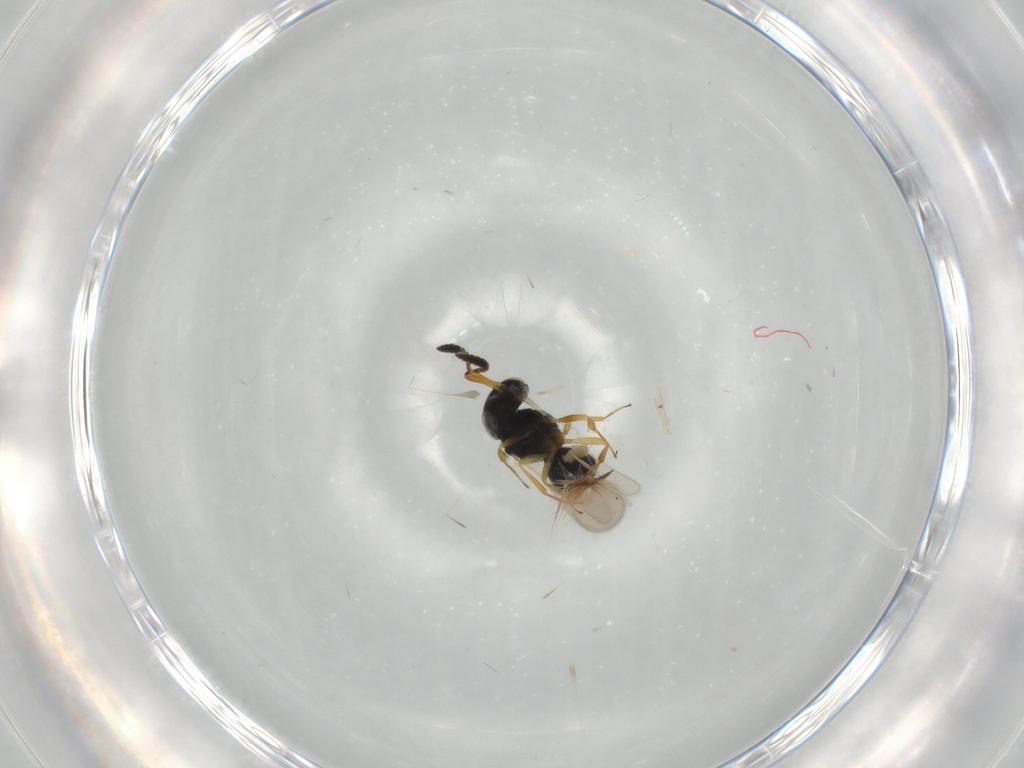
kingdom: Animalia
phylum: Arthropoda
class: Insecta
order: Hymenoptera
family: Scelionidae
